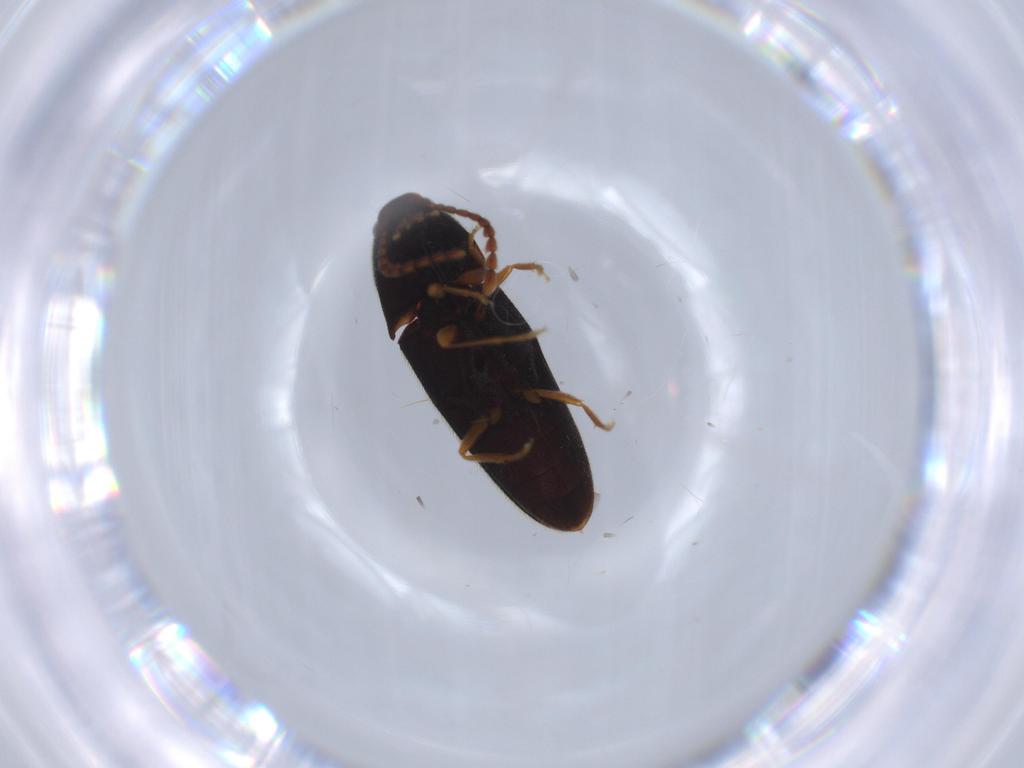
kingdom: Animalia
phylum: Arthropoda
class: Insecta
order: Coleoptera
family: Elateridae
